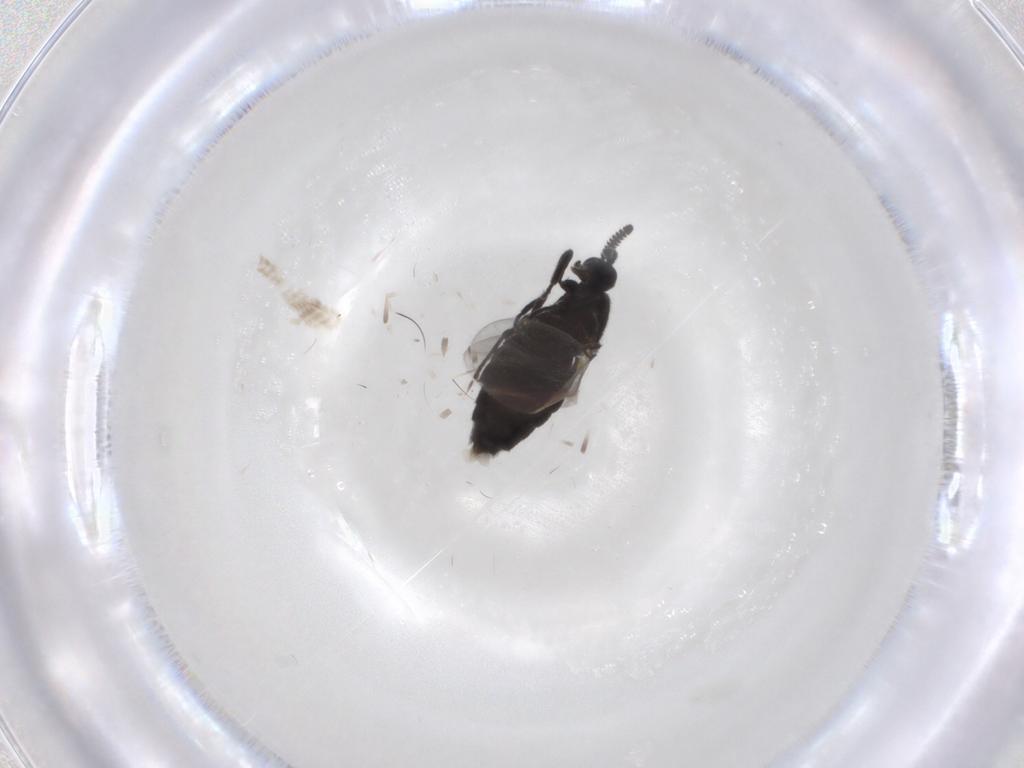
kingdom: Animalia
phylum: Arthropoda
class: Insecta
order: Diptera
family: Scatopsidae
